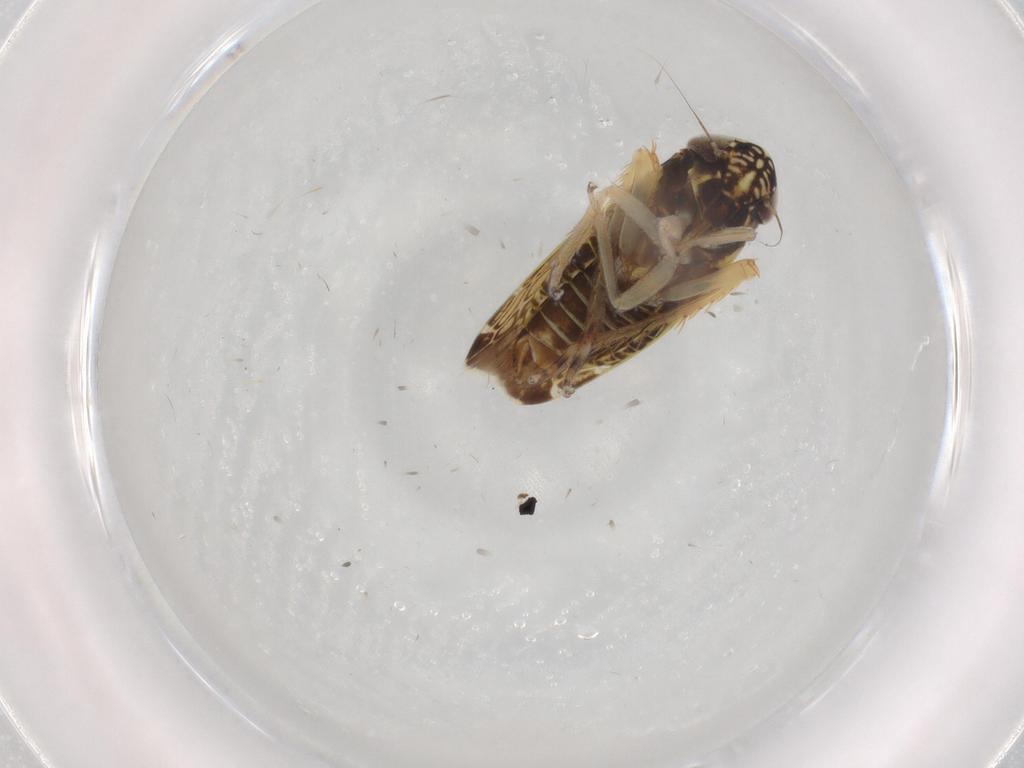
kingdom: Animalia
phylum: Arthropoda
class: Insecta
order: Hemiptera
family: Cicadellidae
